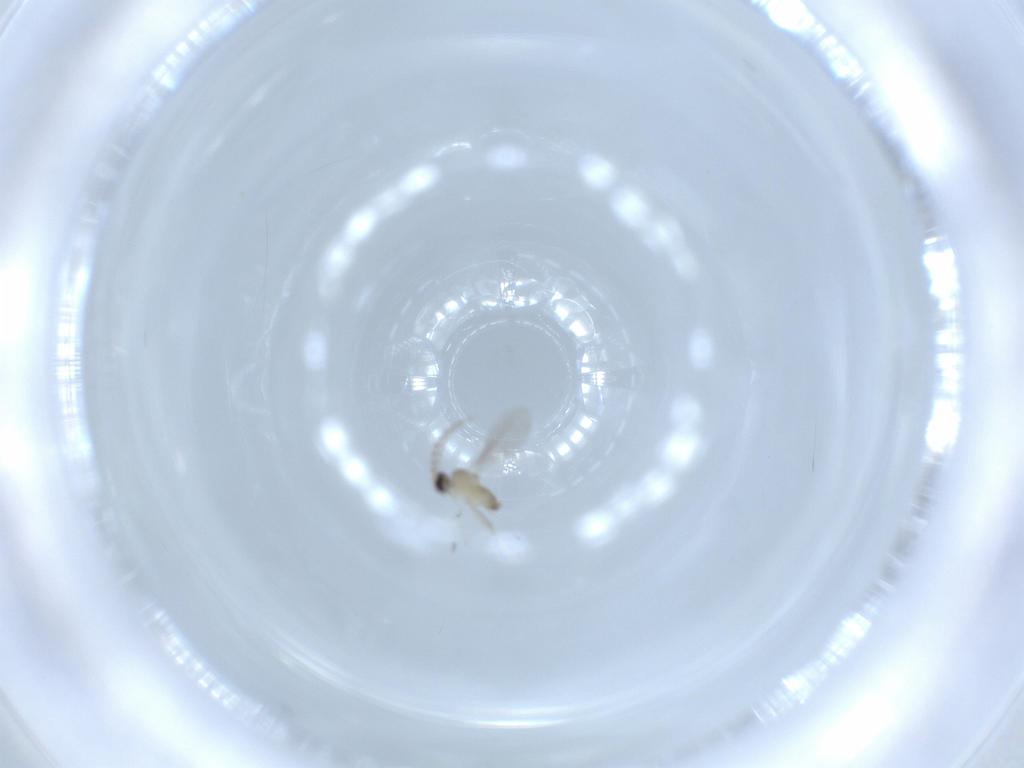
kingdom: Animalia
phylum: Arthropoda
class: Insecta
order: Diptera
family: Cecidomyiidae
